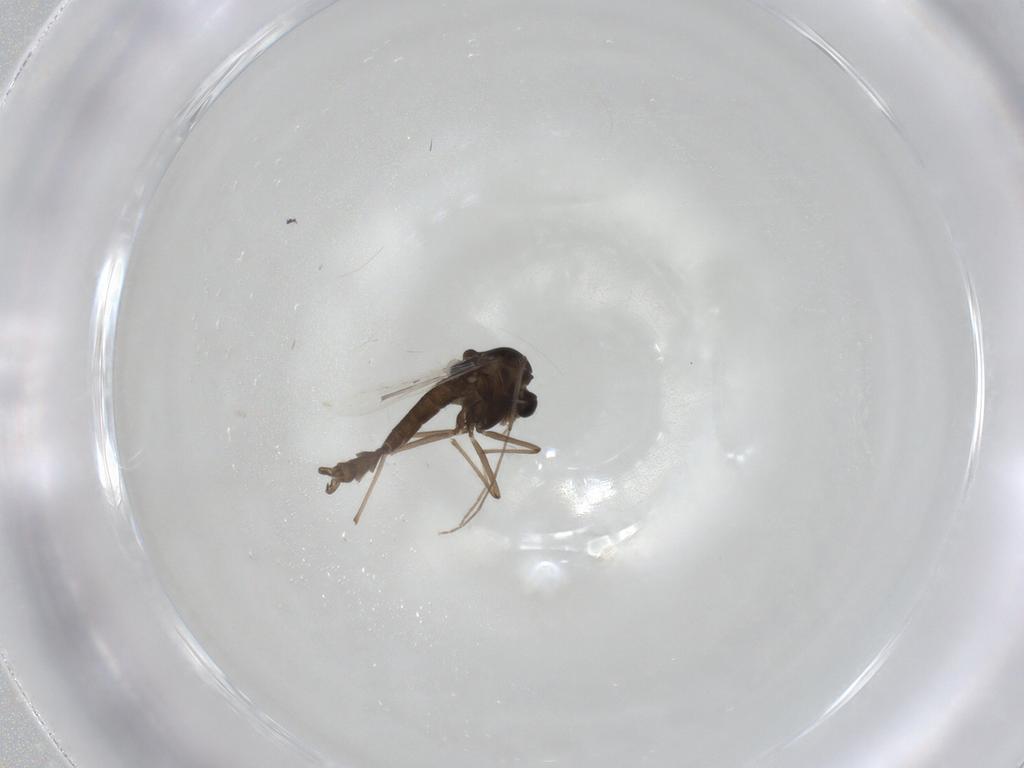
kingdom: Animalia
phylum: Arthropoda
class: Insecta
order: Diptera
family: Chironomidae
